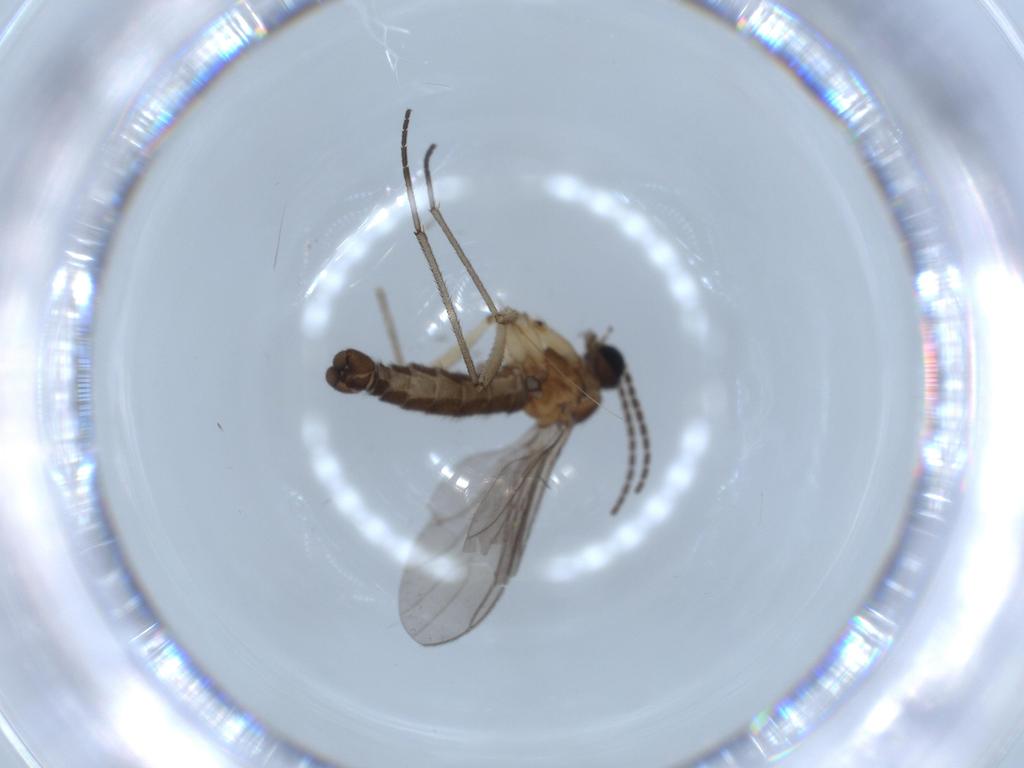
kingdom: Animalia
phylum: Arthropoda
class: Insecta
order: Diptera
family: Sciaridae
